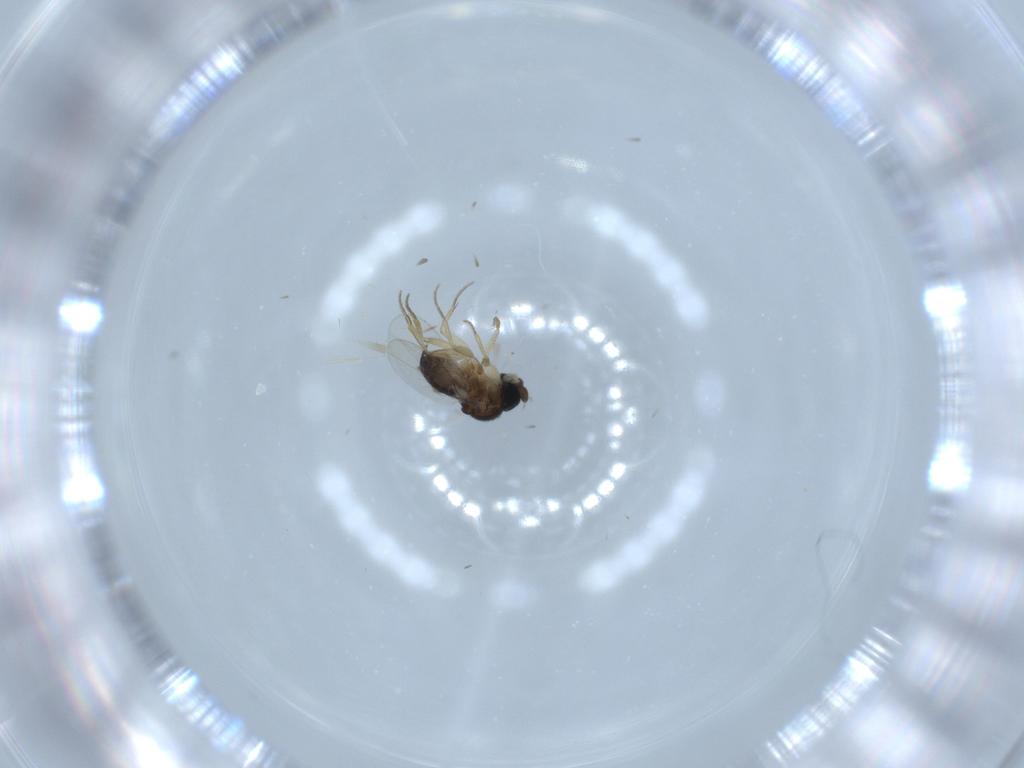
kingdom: Animalia
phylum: Arthropoda
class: Insecta
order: Diptera
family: Phoridae
